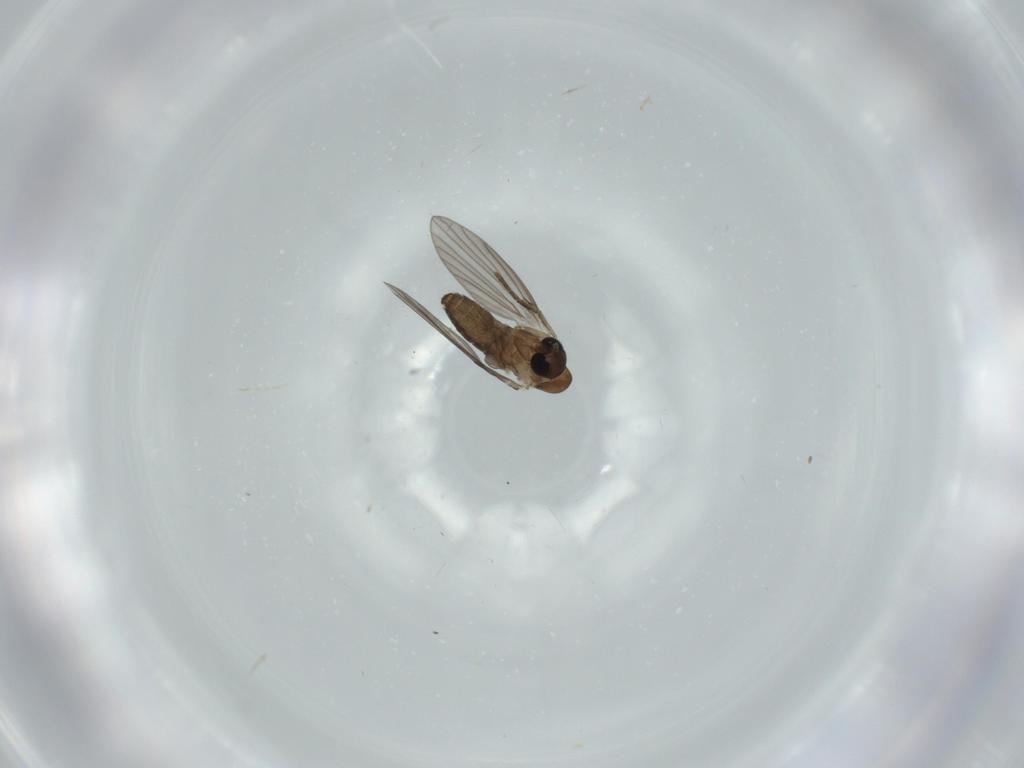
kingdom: Animalia
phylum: Arthropoda
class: Insecta
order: Diptera
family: Psychodidae
